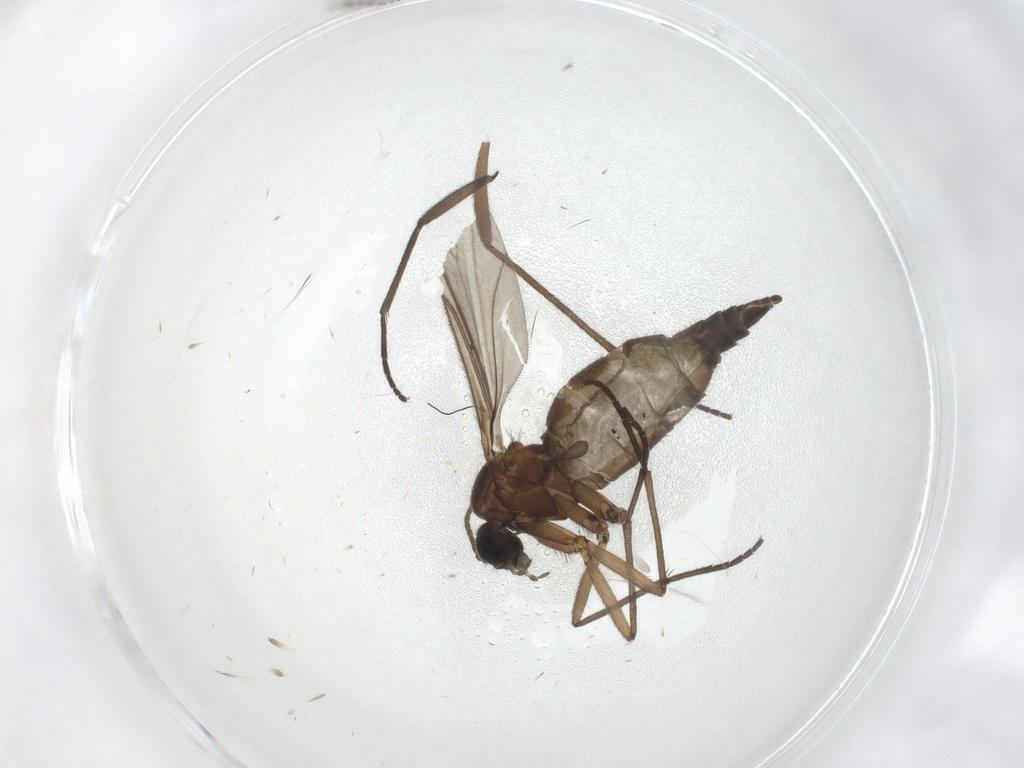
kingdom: Animalia
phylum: Arthropoda
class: Insecta
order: Diptera
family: Sciaridae
